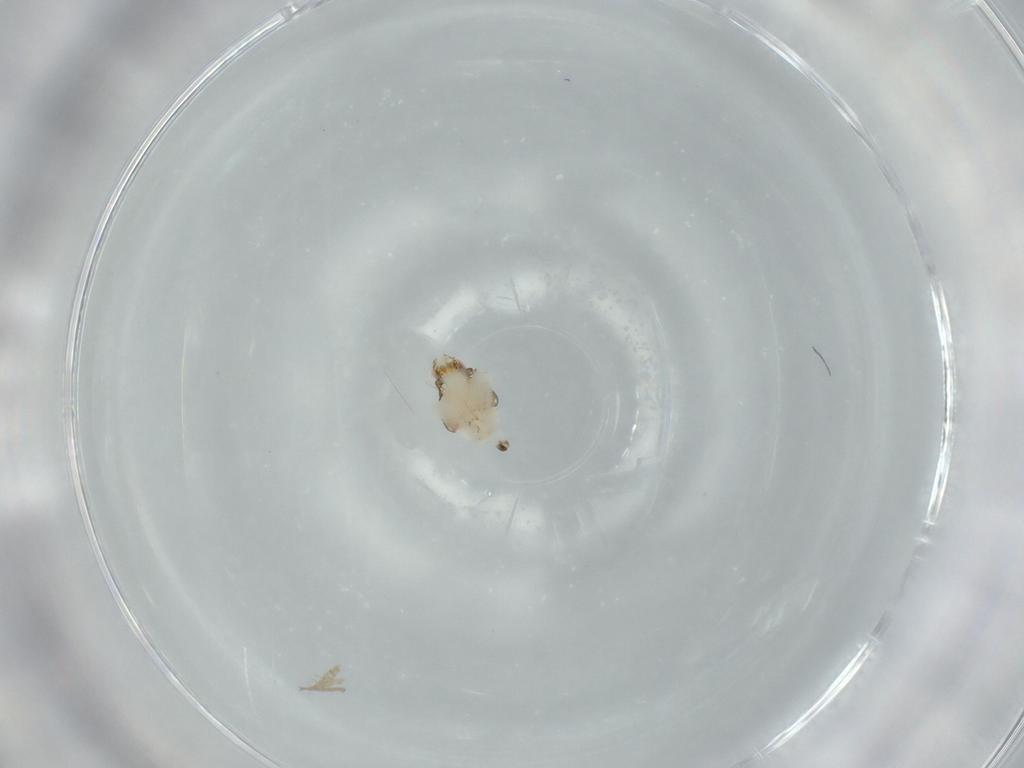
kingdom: Animalia
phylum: Arthropoda
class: Insecta
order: Hemiptera
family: Nogodinidae
